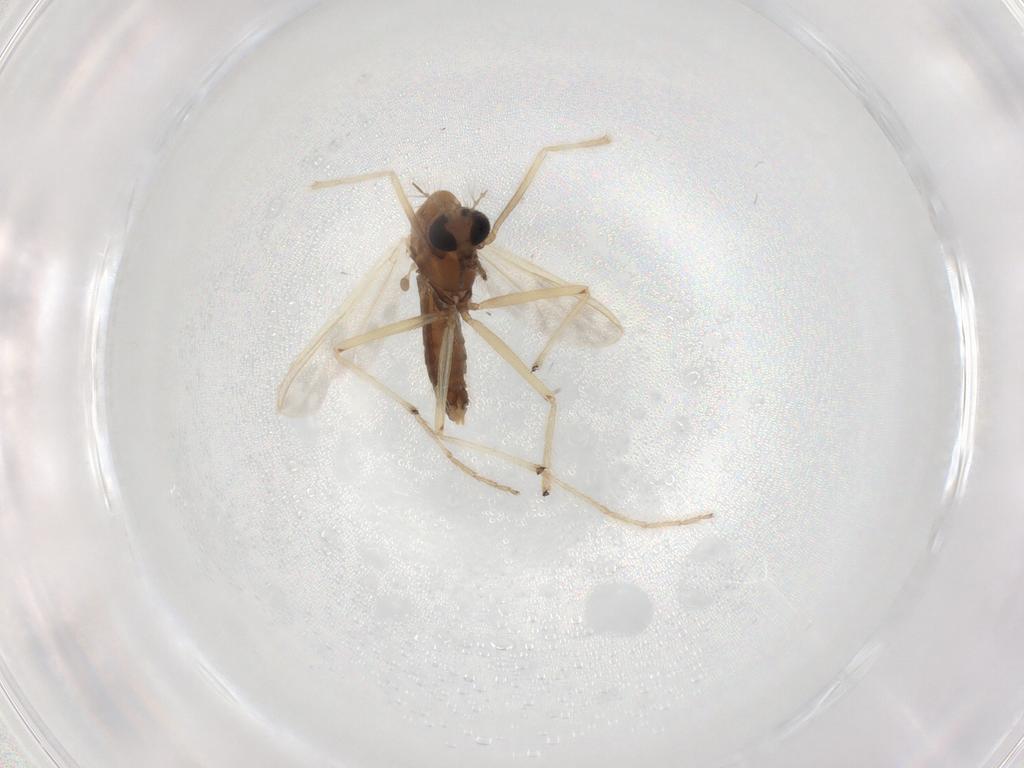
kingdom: Animalia
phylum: Arthropoda
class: Insecta
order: Diptera
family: Chironomidae
